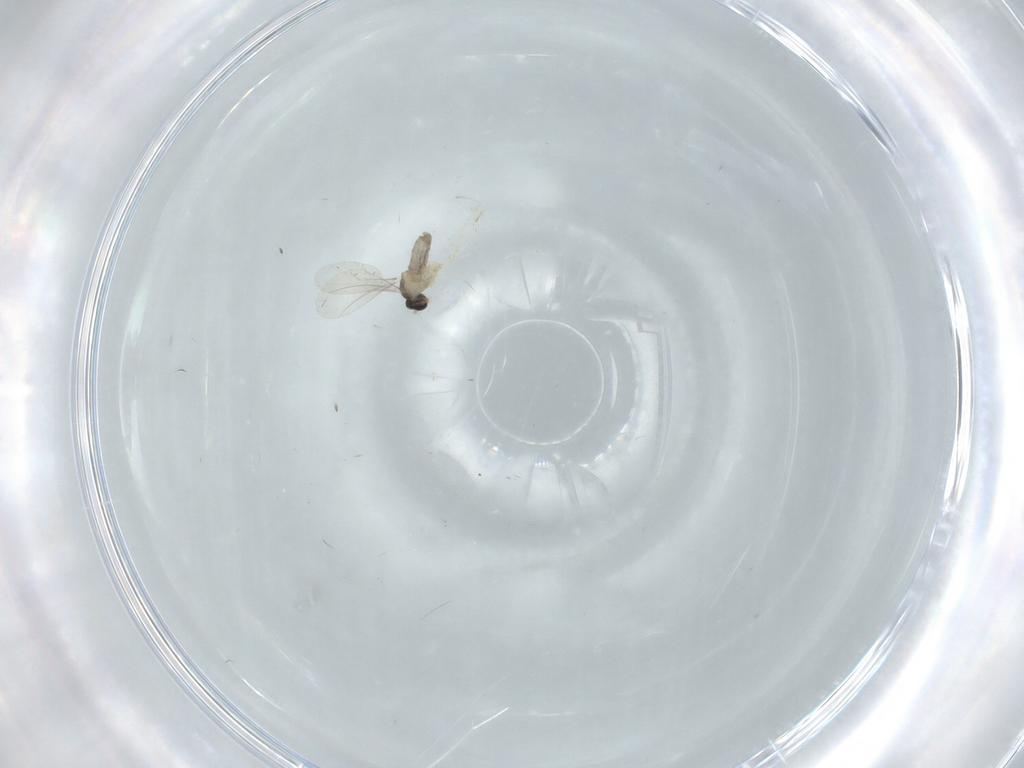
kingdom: Animalia
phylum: Arthropoda
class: Insecta
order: Diptera
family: Cecidomyiidae
